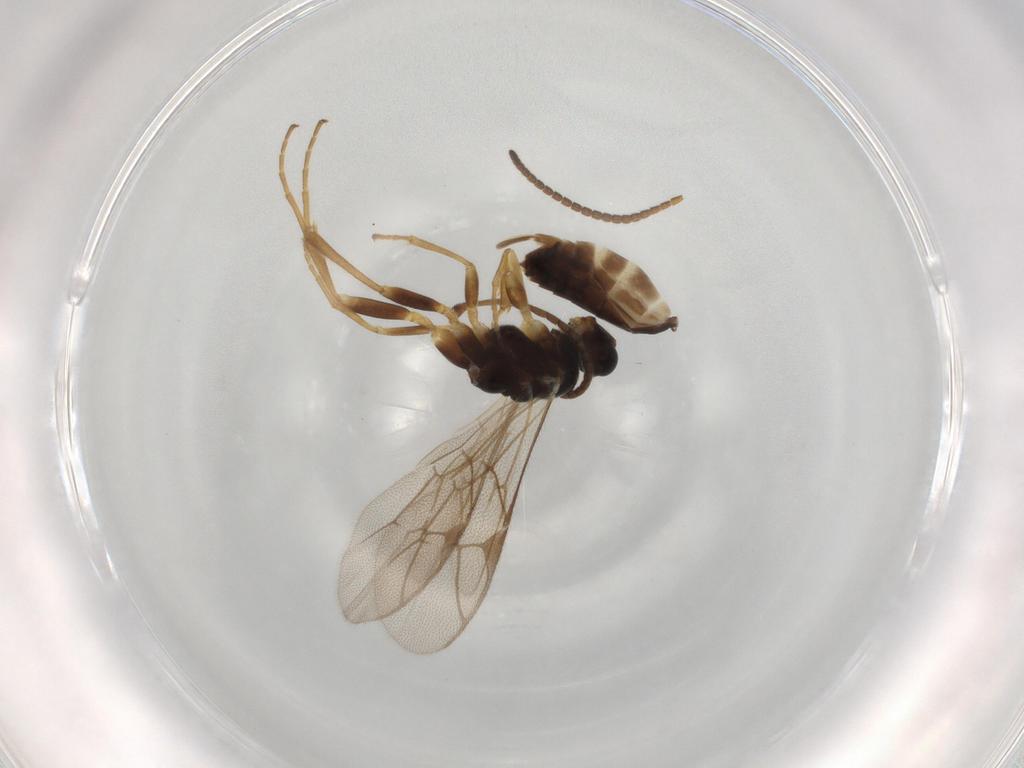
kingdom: Animalia
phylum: Arthropoda
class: Insecta
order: Hymenoptera
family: Ichneumonidae
